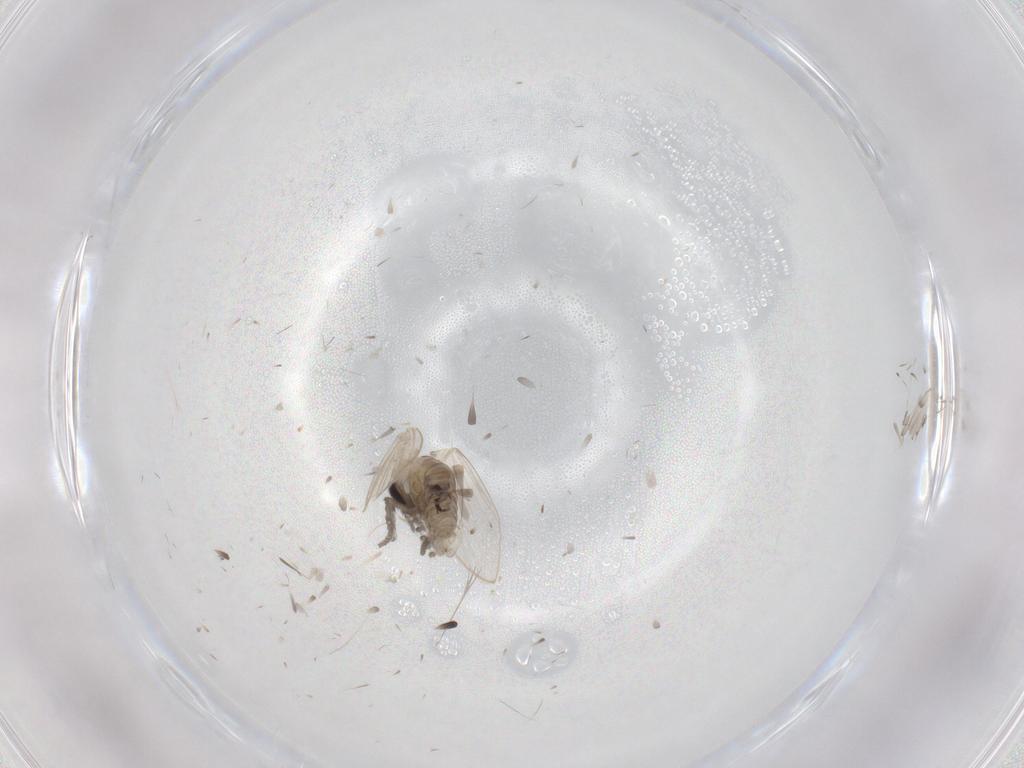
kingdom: Animalia
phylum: Arthropoda
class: Insecta
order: Diptera
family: Psychodidae
